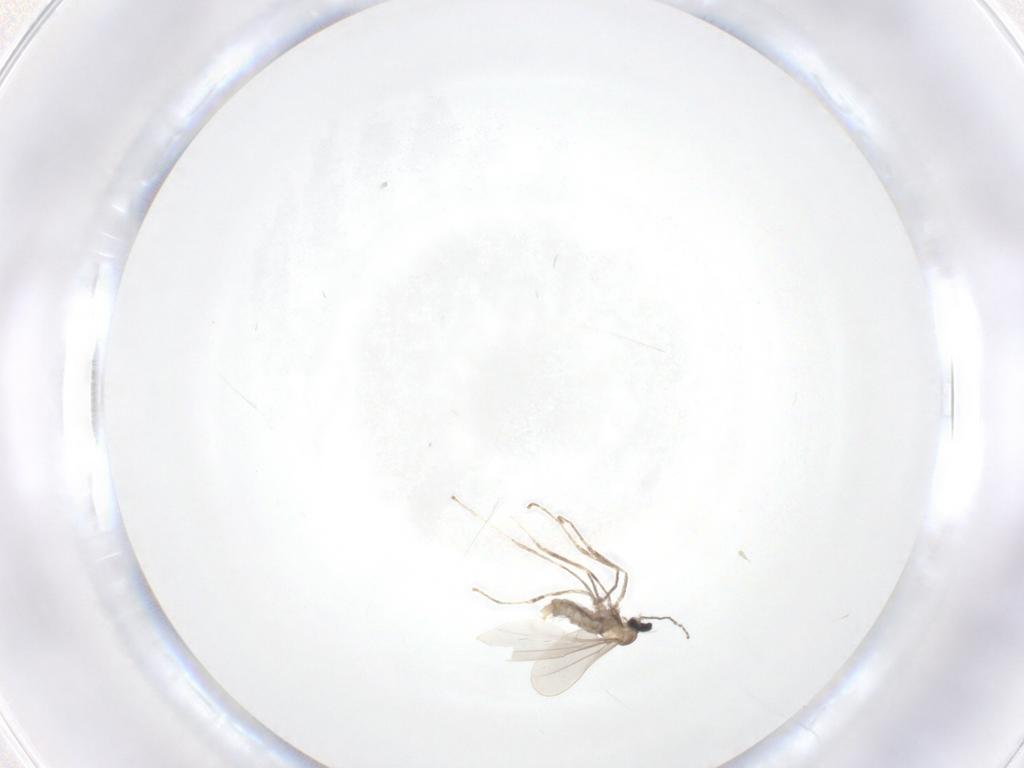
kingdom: Animalia
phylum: Arthropoda
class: Insecta
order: Diptera
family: Cecidomyiidae
